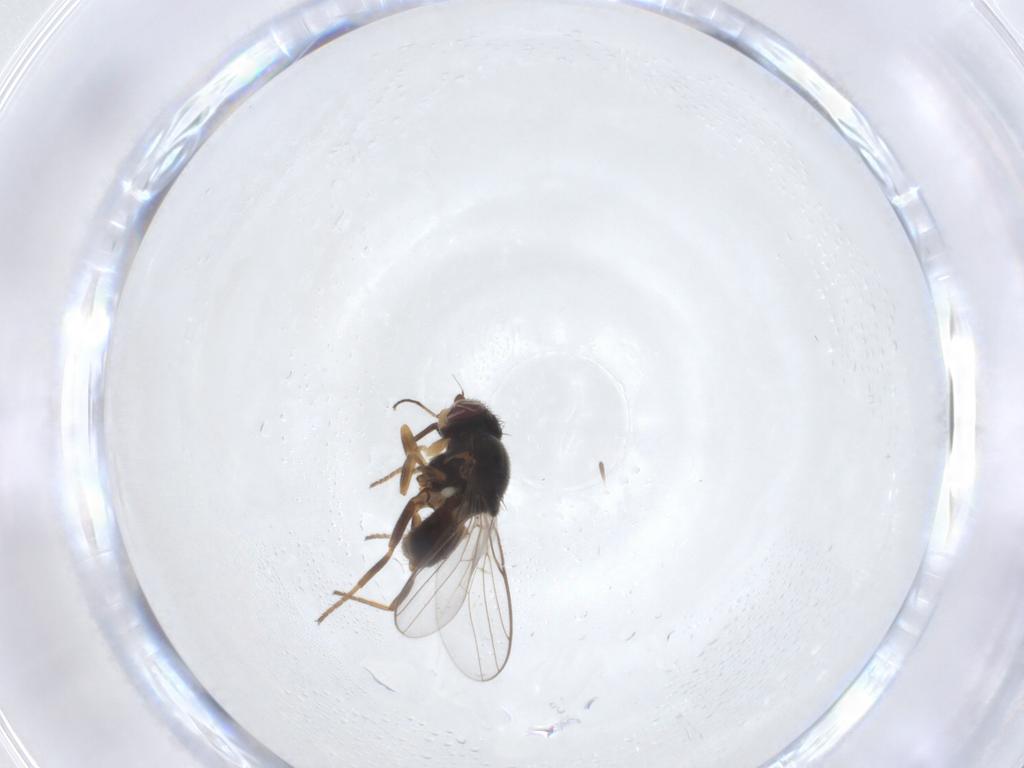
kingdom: Animalia
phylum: Arthropoda
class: Insecta
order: Diptera
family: Chloropidae
